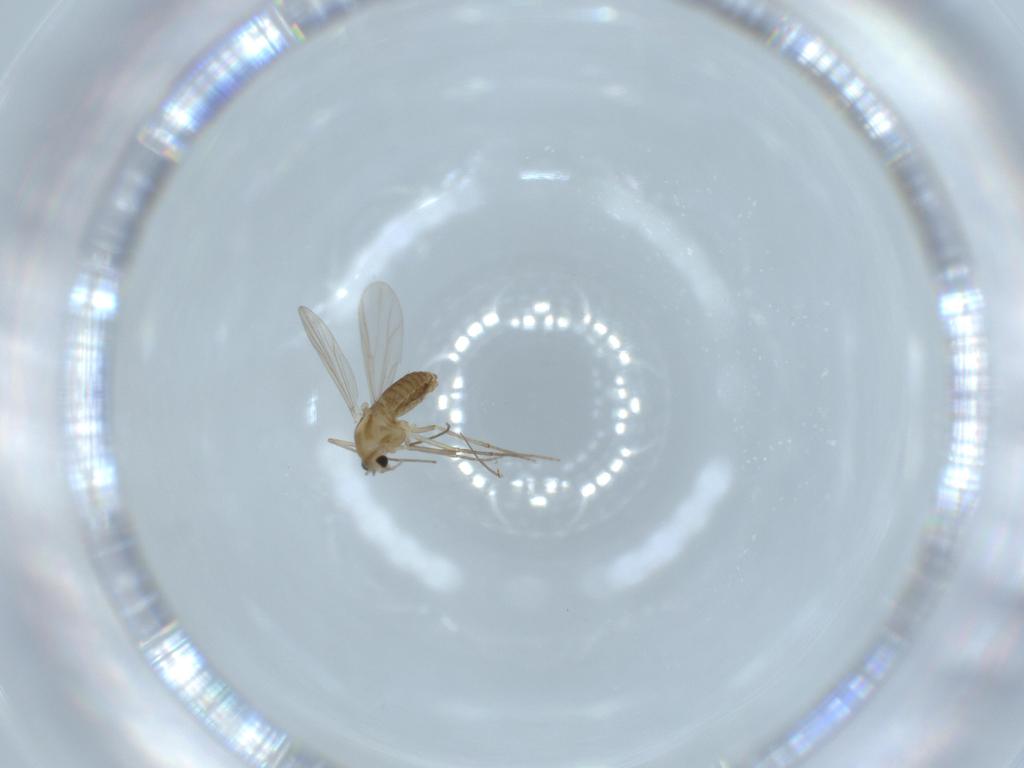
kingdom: Animalia
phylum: Arthropoda
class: Insecta
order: Diptera
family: Chironomidae
